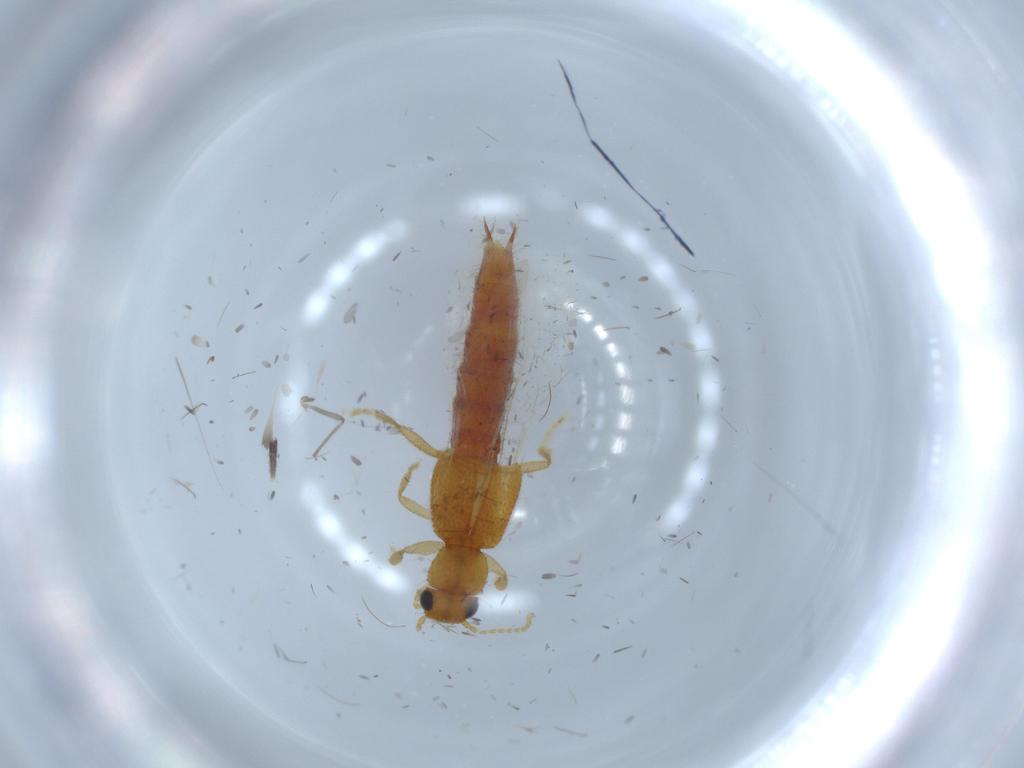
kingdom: Animalia
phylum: Arthropoda
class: Insecta
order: Coleoptera
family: Staphylinidae
